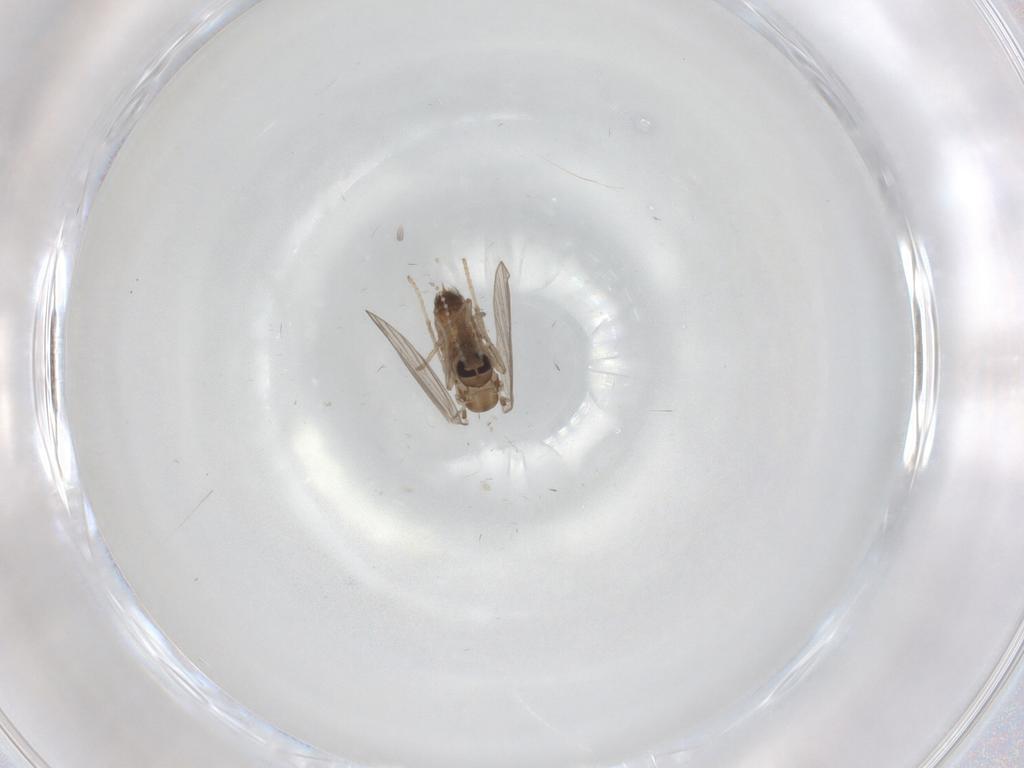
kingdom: Animalia
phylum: Arthropoda
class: Insecta
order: Diptera
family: Psychodidae
